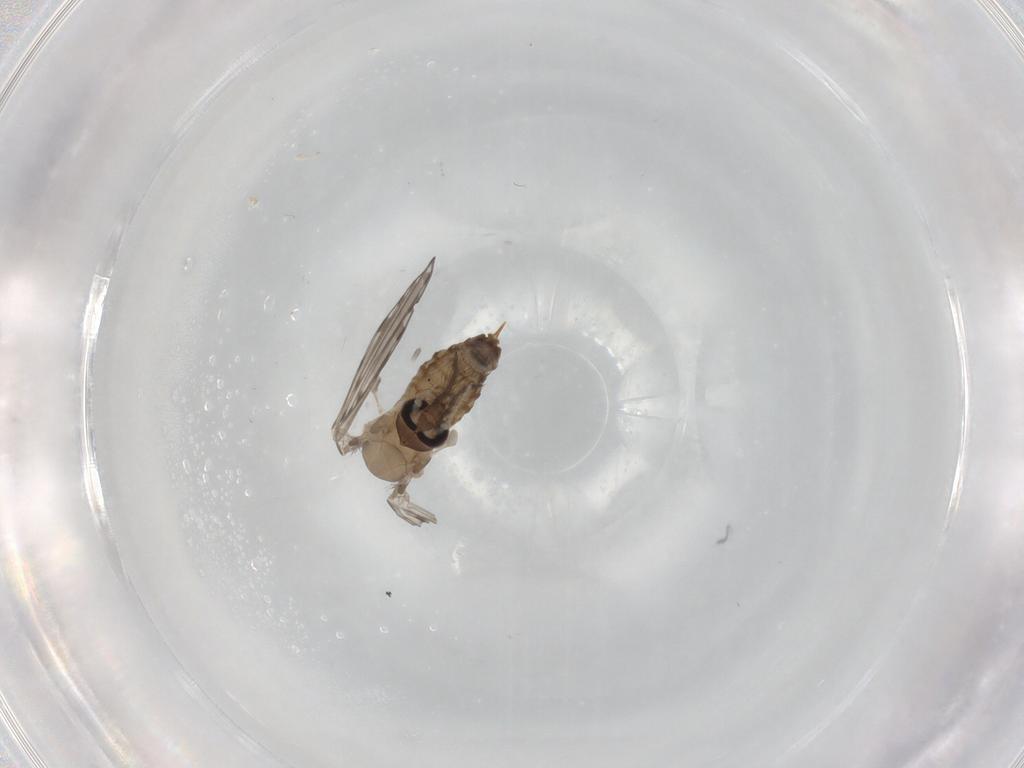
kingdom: Animalia
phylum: Arthropoda
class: Insecta
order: Diptera
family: Psychodidae
